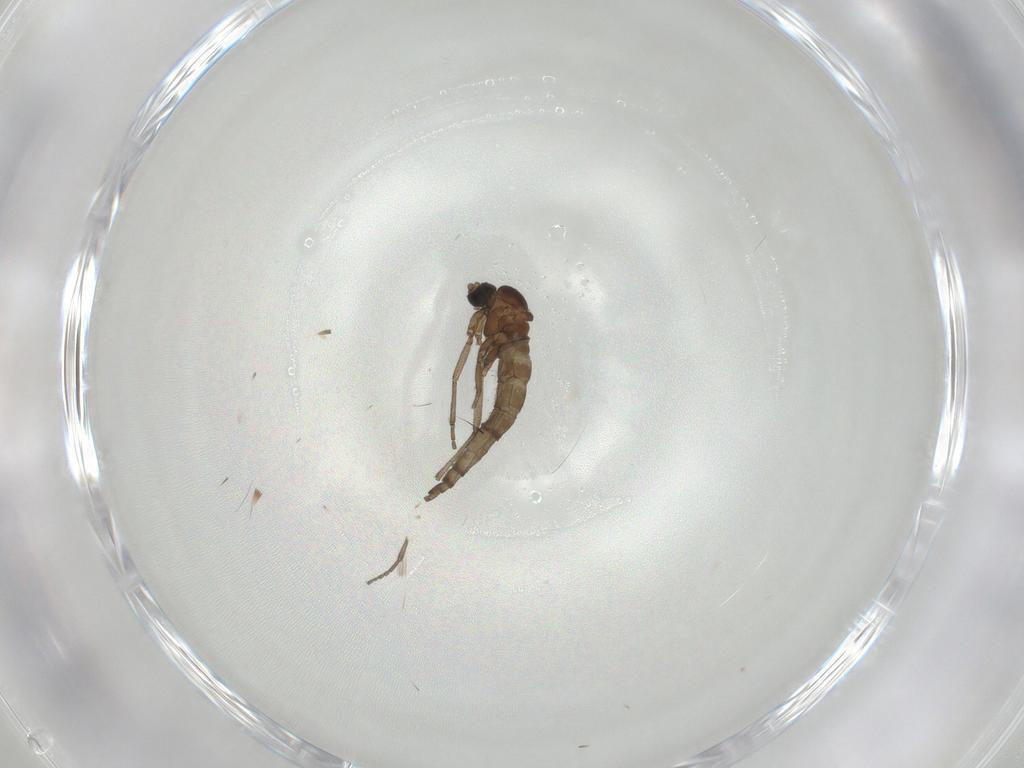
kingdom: Animalia
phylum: Arthropoda
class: Insecta
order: Diptera
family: Sciaridae
